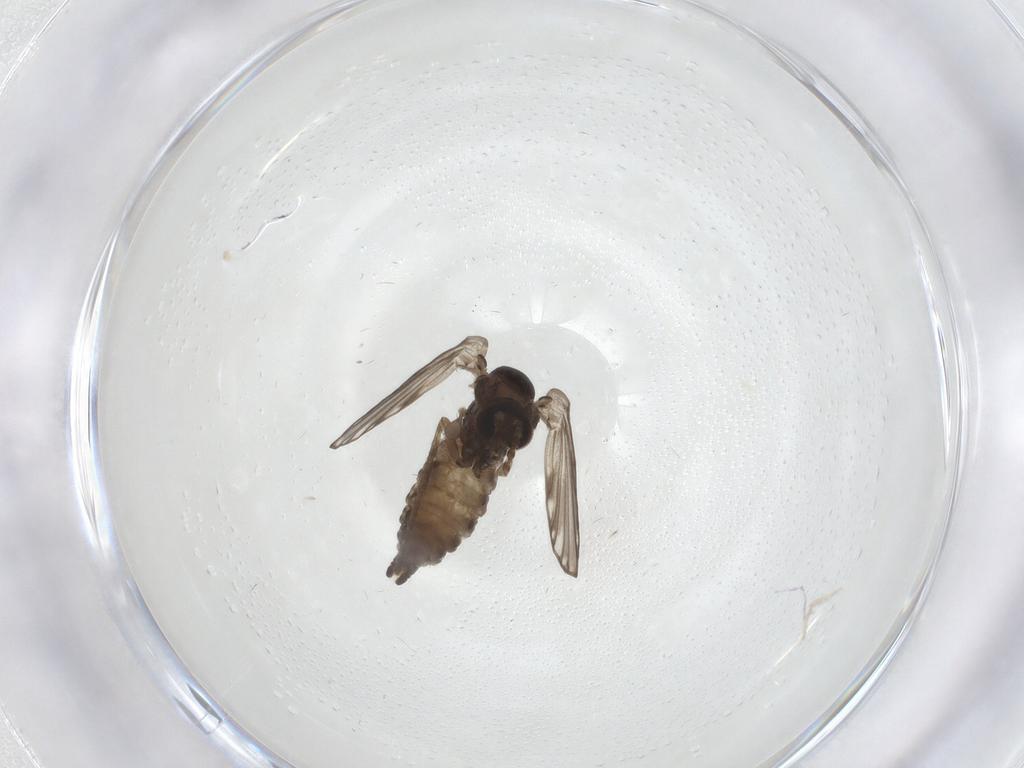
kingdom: Animalia
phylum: Arthropoda
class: Insecta
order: Diptera
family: Psychodidae
